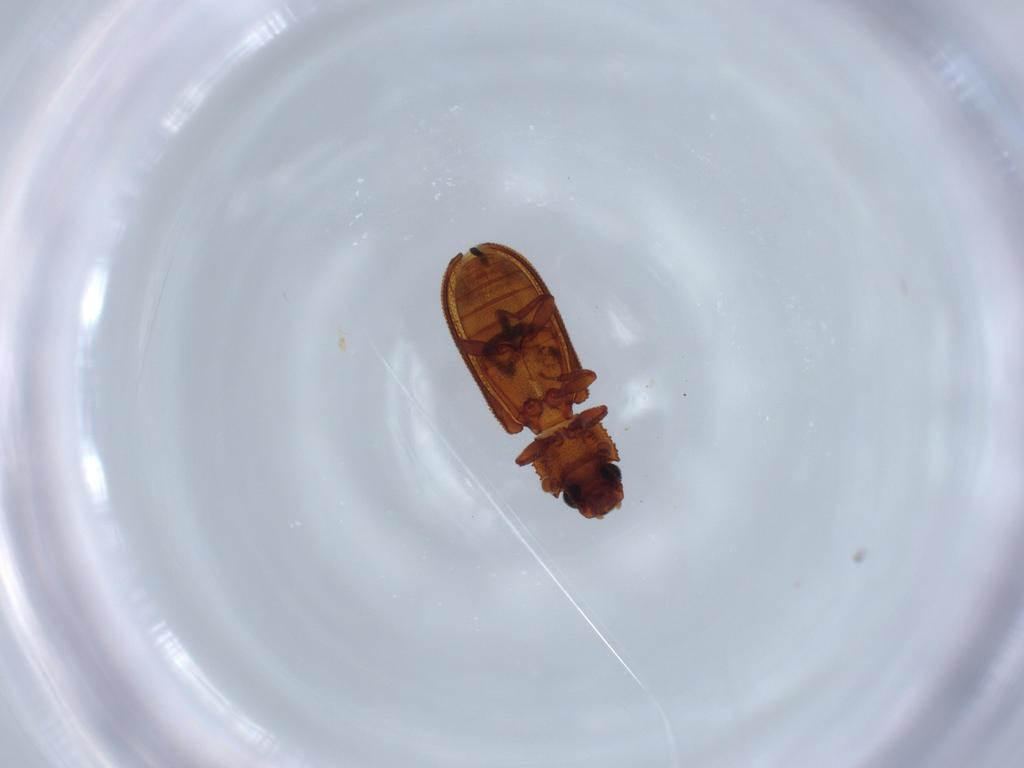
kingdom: Animalia
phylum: Arthropoda
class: Insecta
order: Coleoptera
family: Zopheridae
